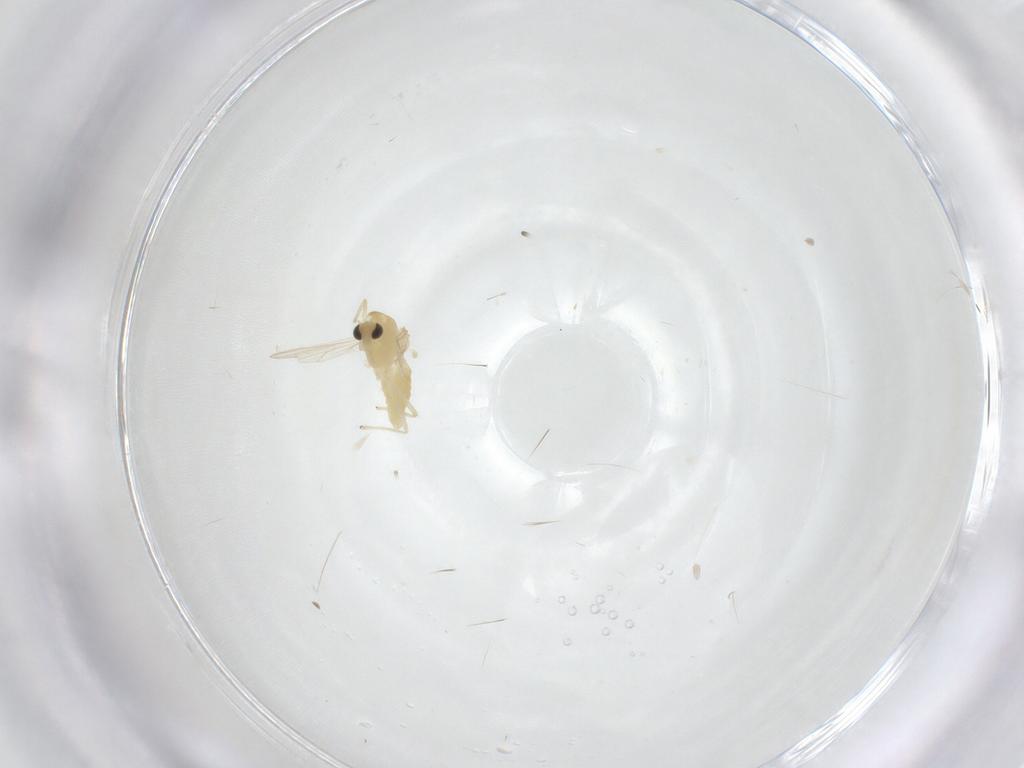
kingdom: Animalia
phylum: Arthropoda
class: Insecta
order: Diptera
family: Chironomidae
